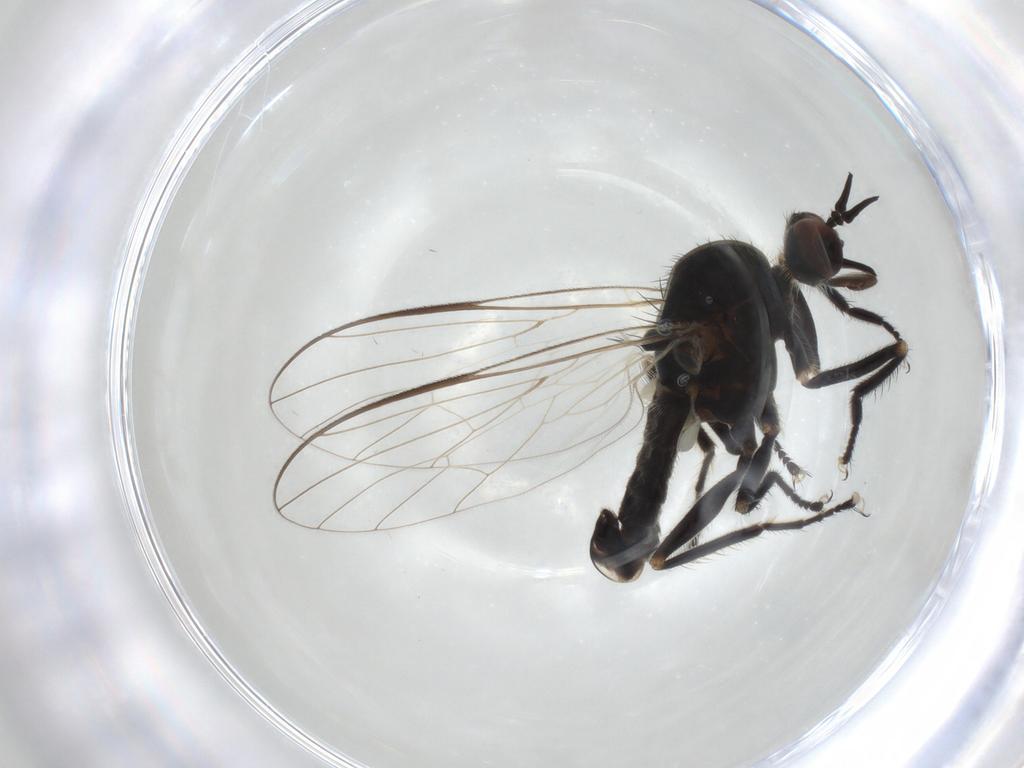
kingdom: Animalia
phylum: Arthropoda
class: Insecta
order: Diptera
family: Empididae
